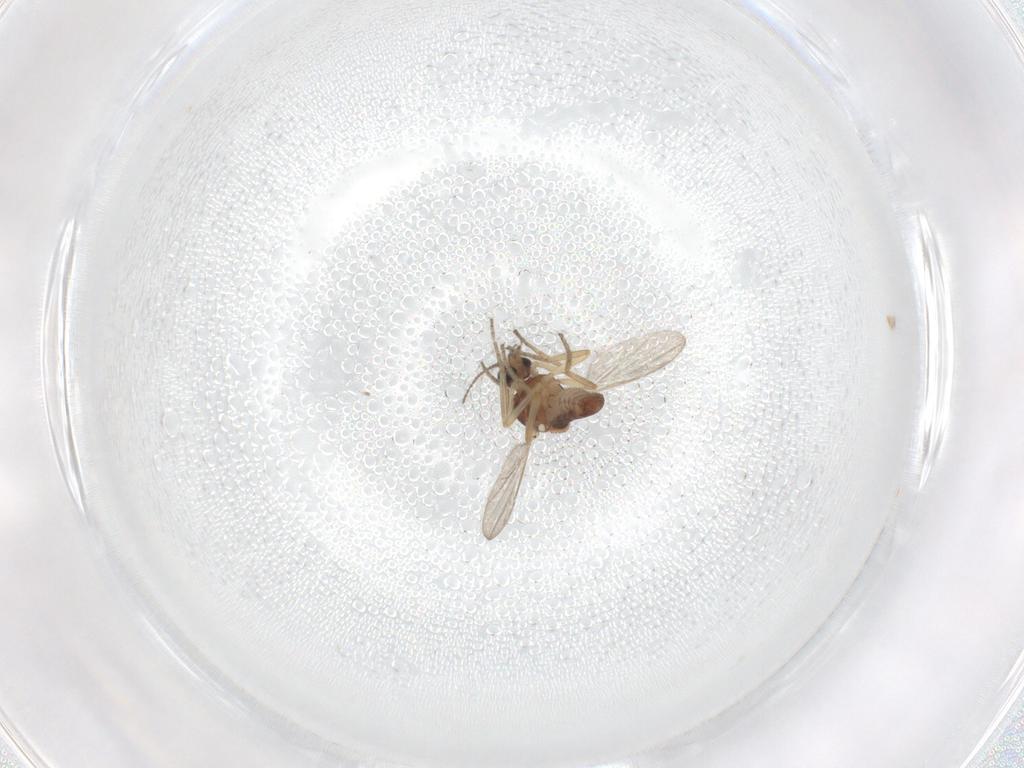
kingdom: Animalia
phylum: Arthropoda
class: Insecta
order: Diptera
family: Ceratopogonidae
